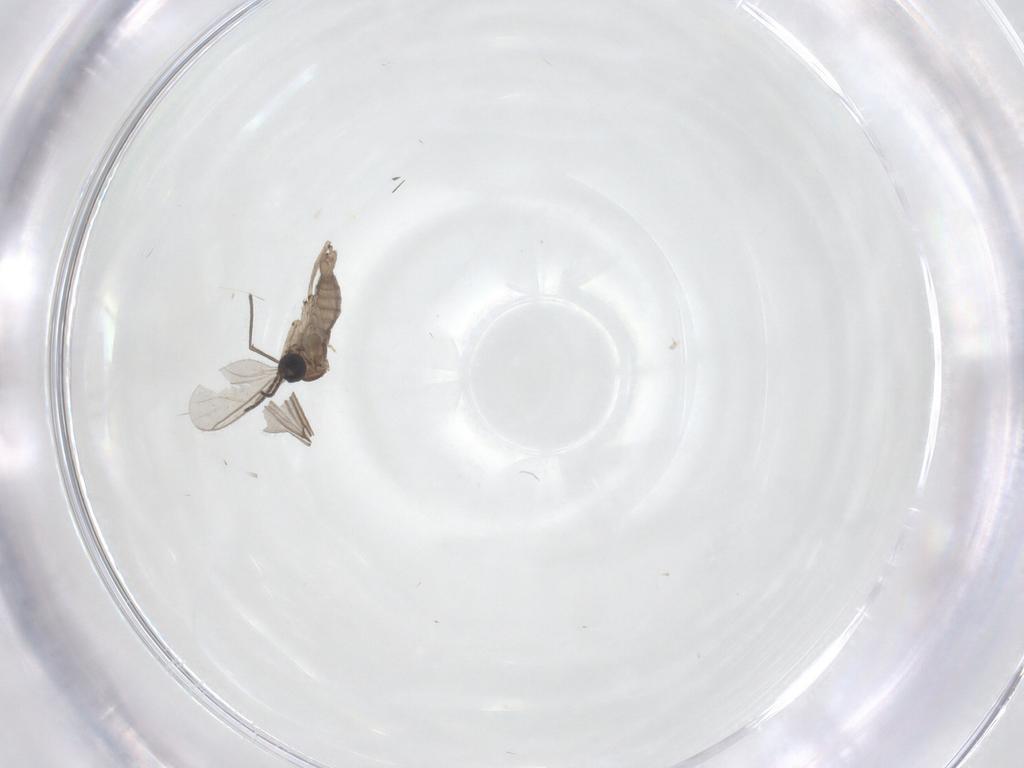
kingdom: Animalia
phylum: Arthropoda
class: Insecta
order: Diptera
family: Sciaridae
